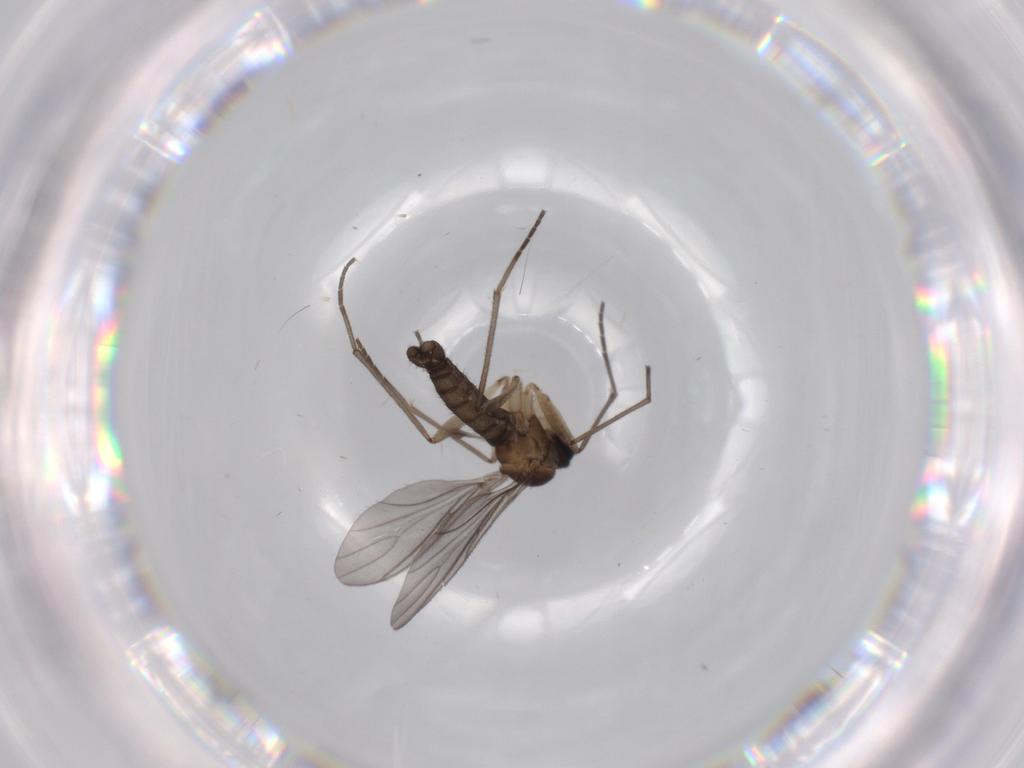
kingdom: Animalia
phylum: Arthropoda
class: Insecta
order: Diptera
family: Sciaridae
